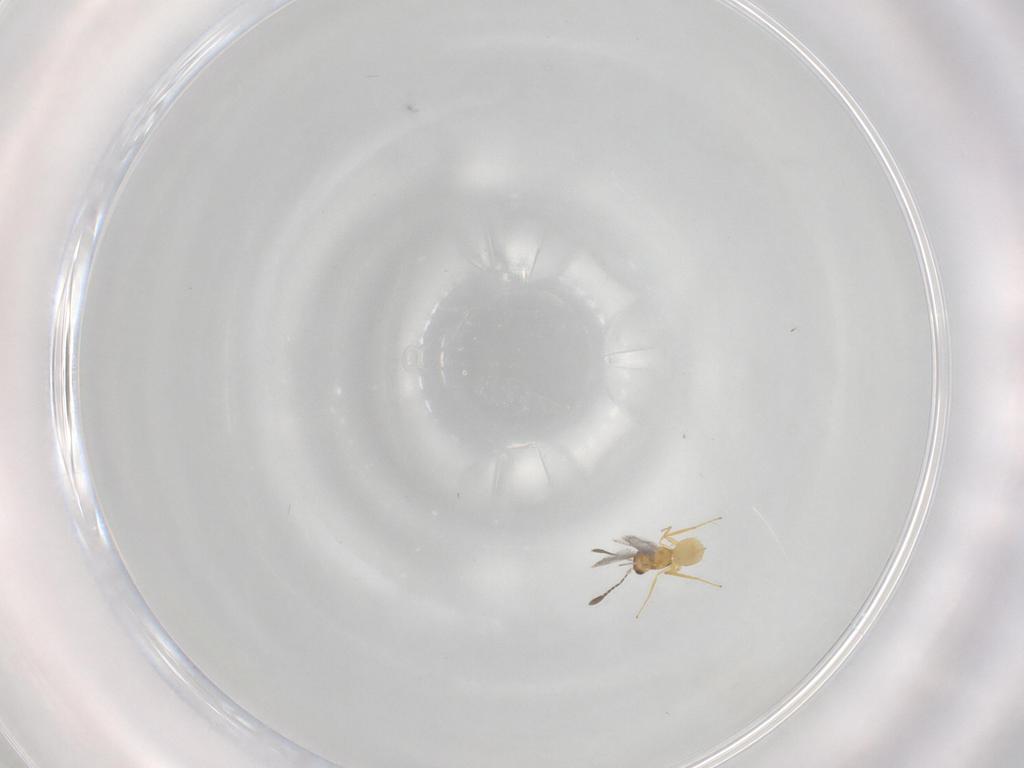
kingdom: Animalia
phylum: Arthropoda
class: Insecta
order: Hymenoptera
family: Mymaridae
